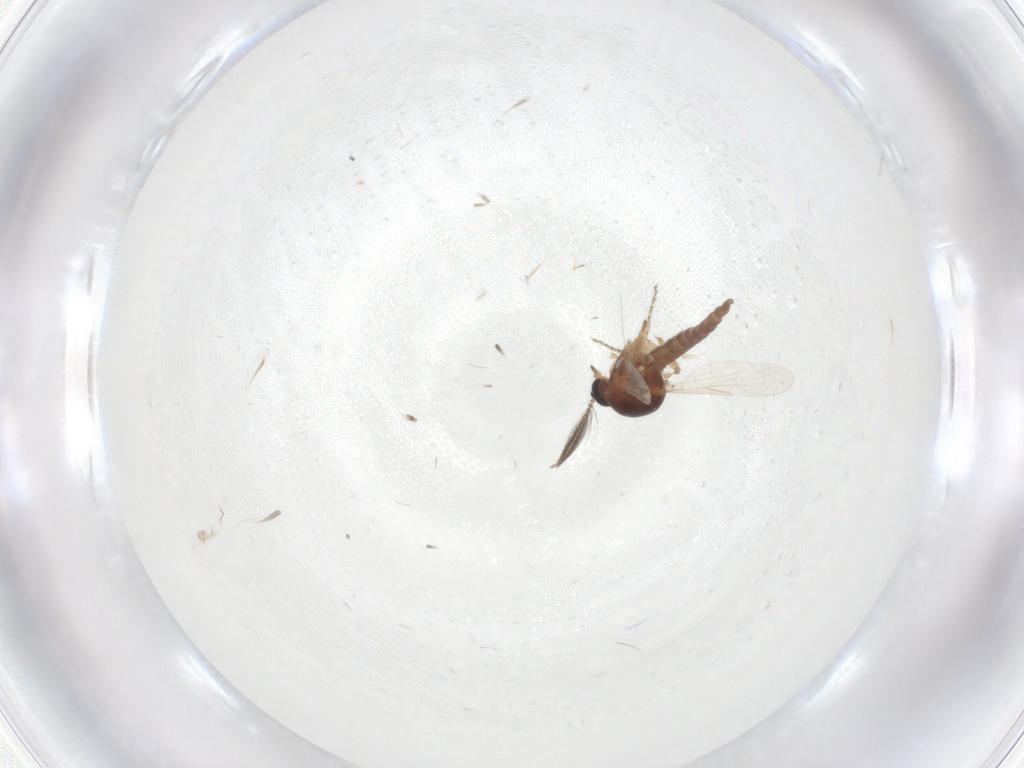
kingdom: Animalia
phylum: Arthropoda
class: Insecta
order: Diptera
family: Ceratopogonidae
